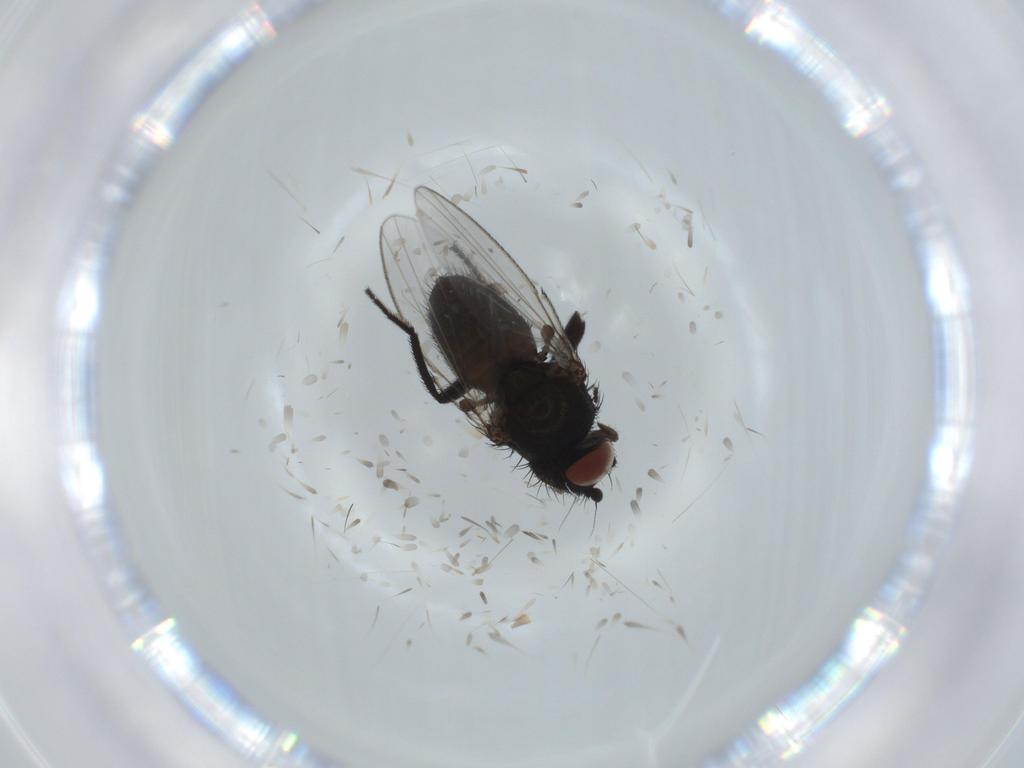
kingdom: Animalia
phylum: Arthropoda
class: Insecta
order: Diptera
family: Milichiidae
